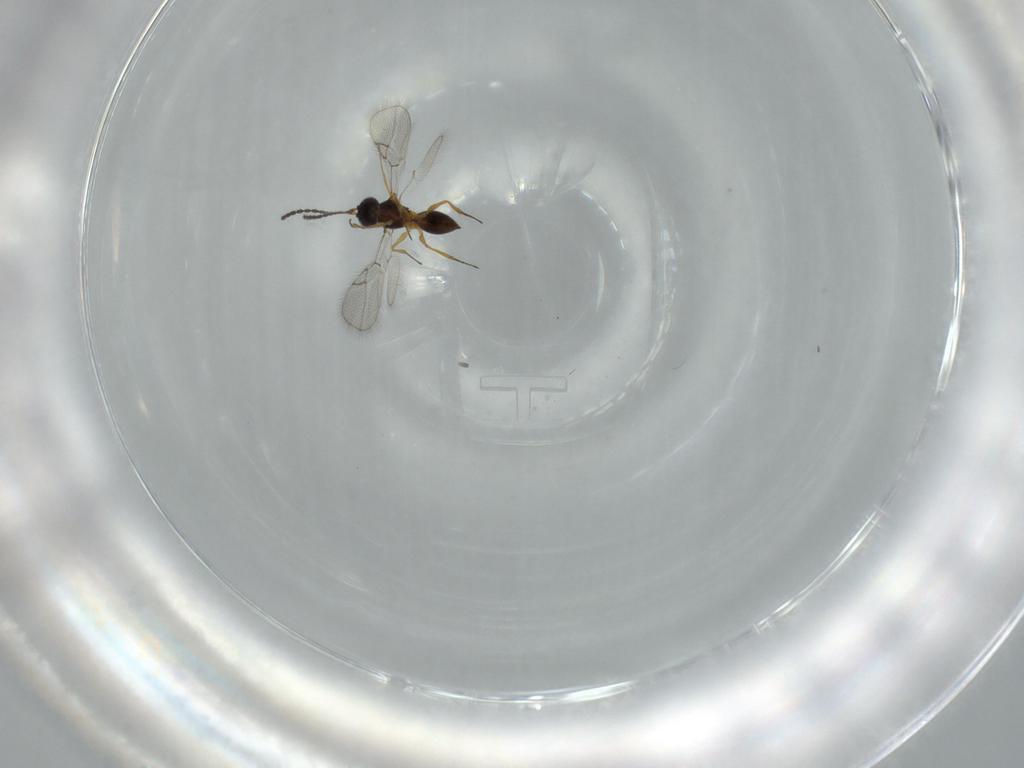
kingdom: Animalia
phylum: Arthropoda
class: Insecta
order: Hymenoptera
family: Figitidae
